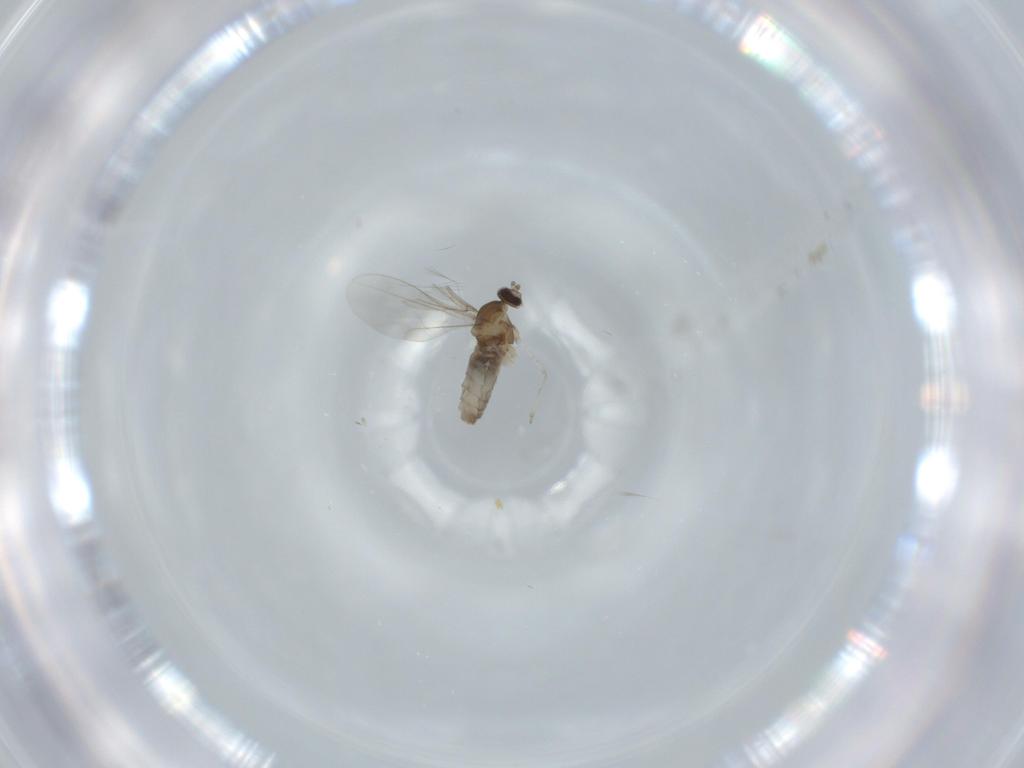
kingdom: Animalia
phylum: Arthropoda
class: Insecta
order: Diptera
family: Cecidomyiidae
